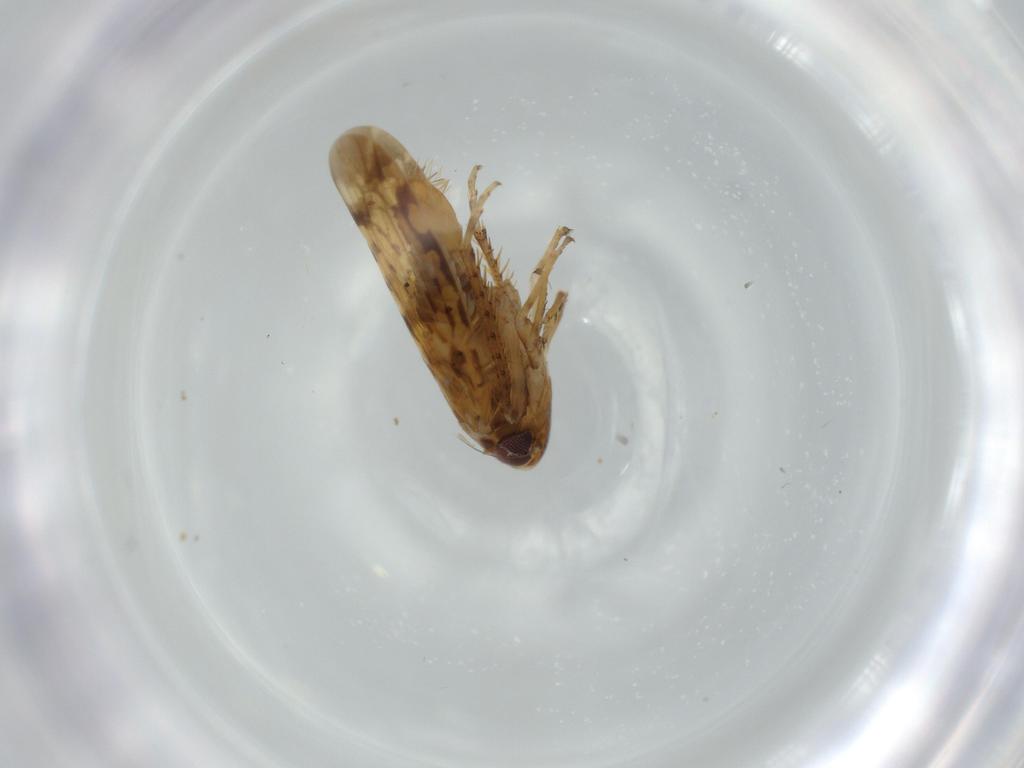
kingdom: Animalia
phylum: Arthropoda
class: Insecta
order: Hemiptera
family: Cicadellidae
